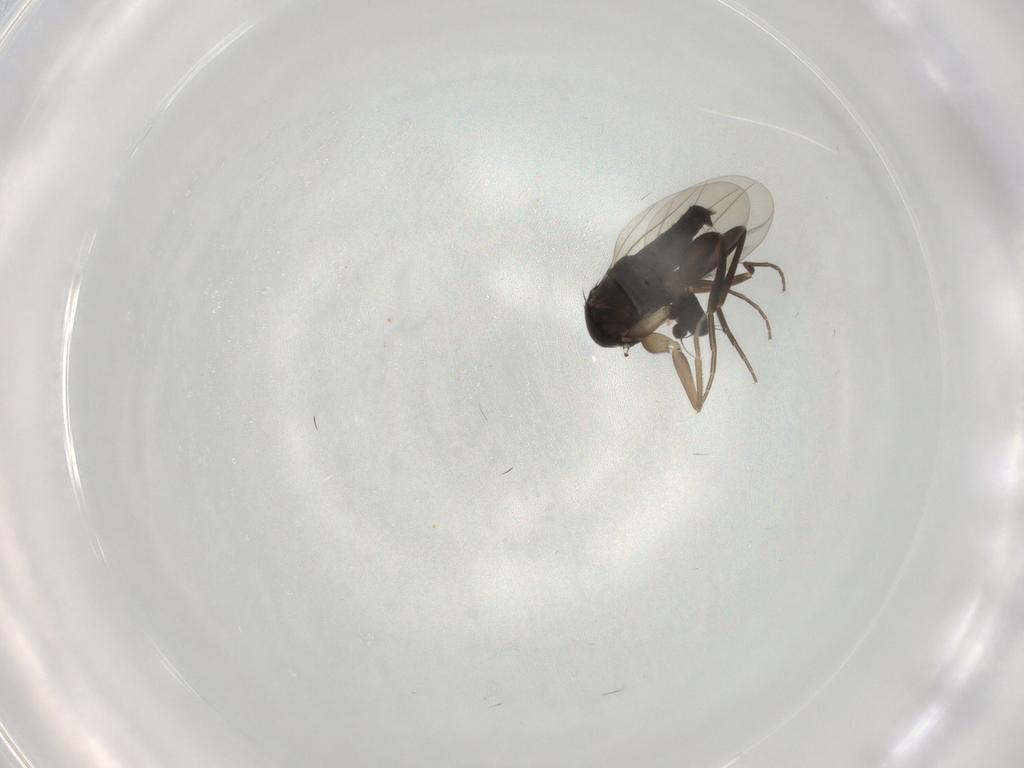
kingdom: Animalia
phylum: Arthropoda
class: Insecta
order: Diptera
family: Phoridae
